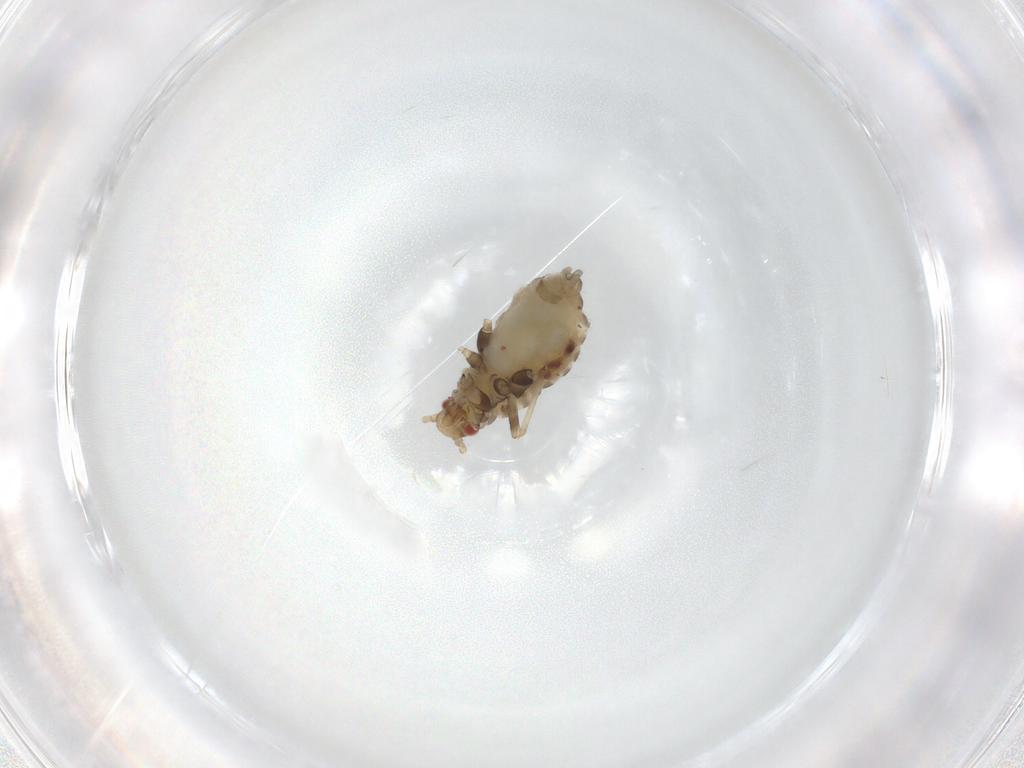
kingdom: Animalia
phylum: Arthropoda
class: Insecta
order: Hemiptera
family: Aphididae
